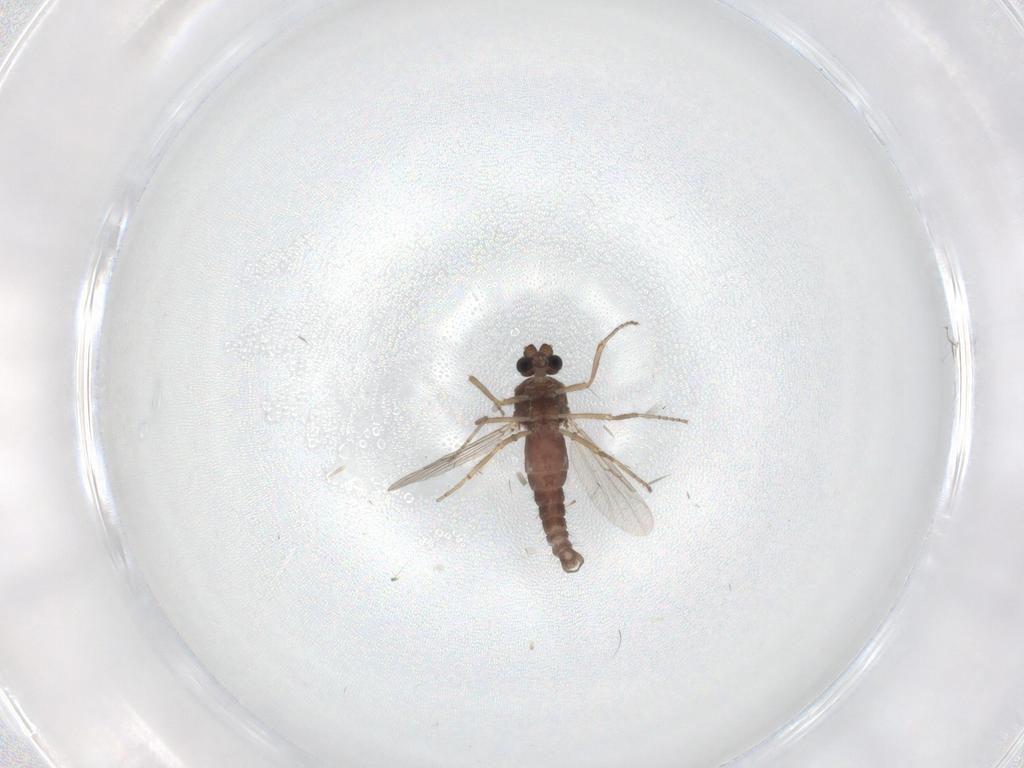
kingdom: Animalia
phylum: Arthropoda
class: Insecta
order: Diptera
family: Ceratopogonidae
